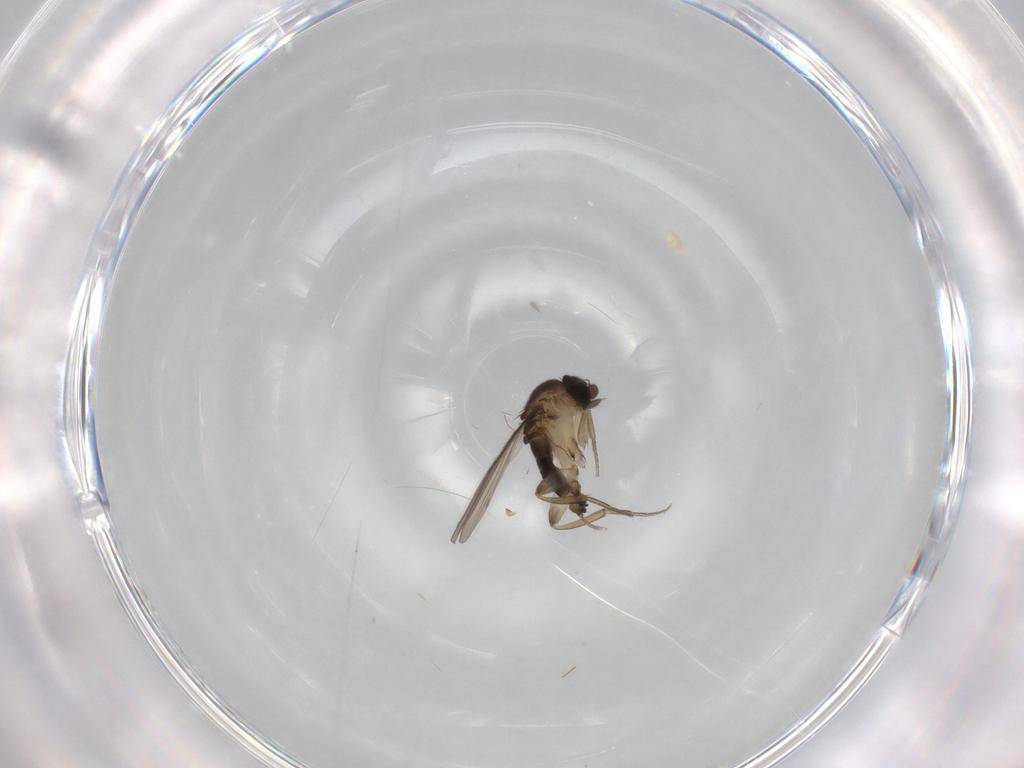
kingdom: Animalia
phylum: Arthropoda
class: Insecta
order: Diptera
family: Phoridae
